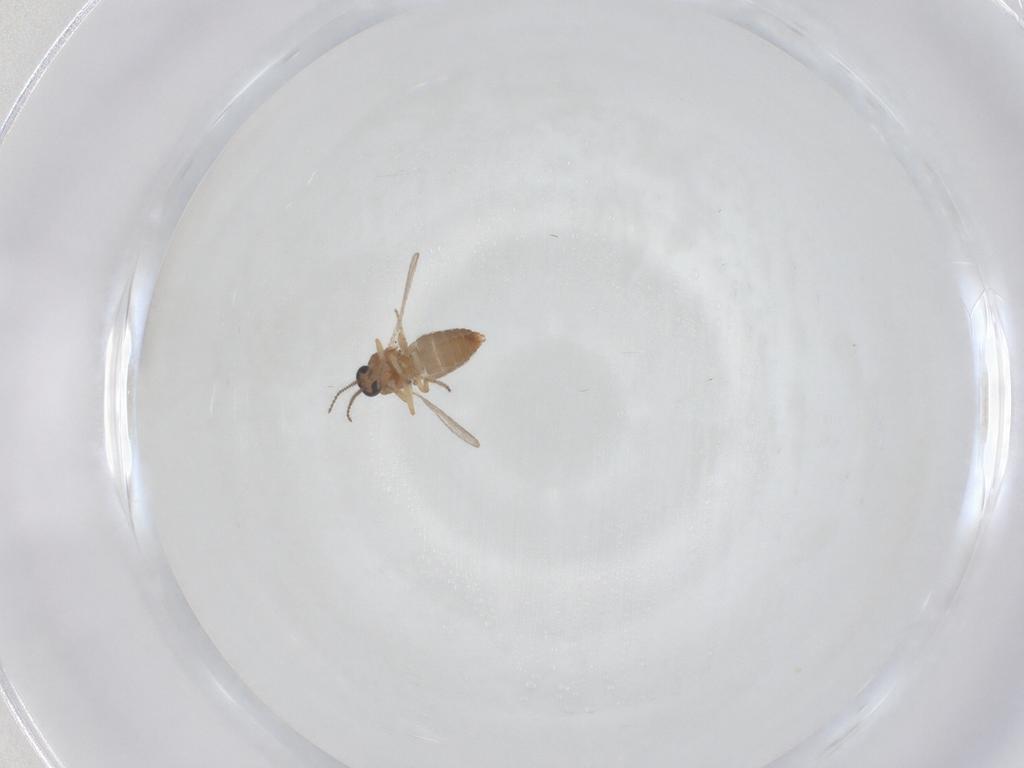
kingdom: Animalia
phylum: Arthropoda
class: Insecta
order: Diptera
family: Ceratopogonidae
